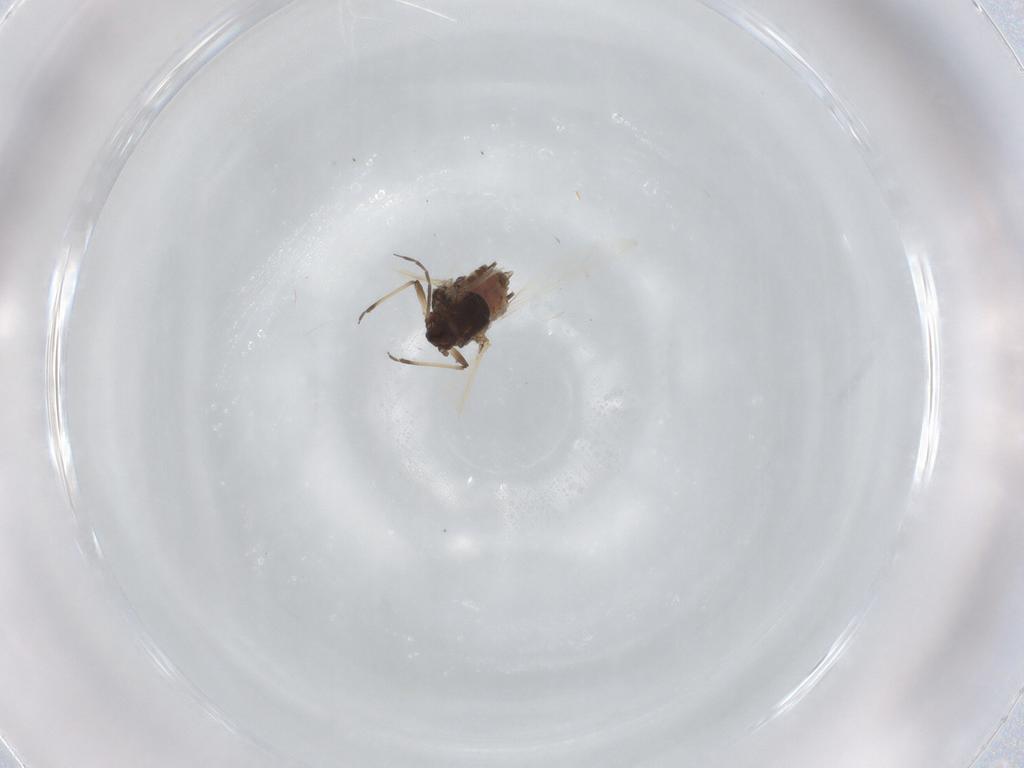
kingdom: Animalia
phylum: Arthropoda
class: Insecta
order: Hemiptera
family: Aphididae
